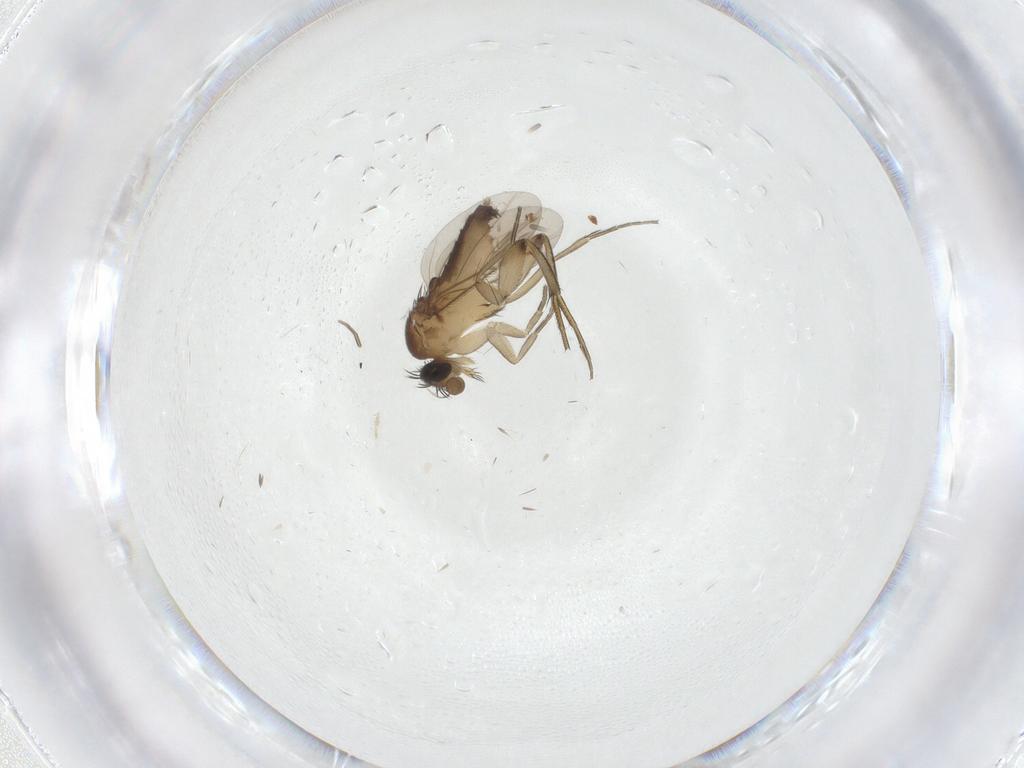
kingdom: Animalia
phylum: Arthropoda
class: Insecta
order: Diptera
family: Phoridae
